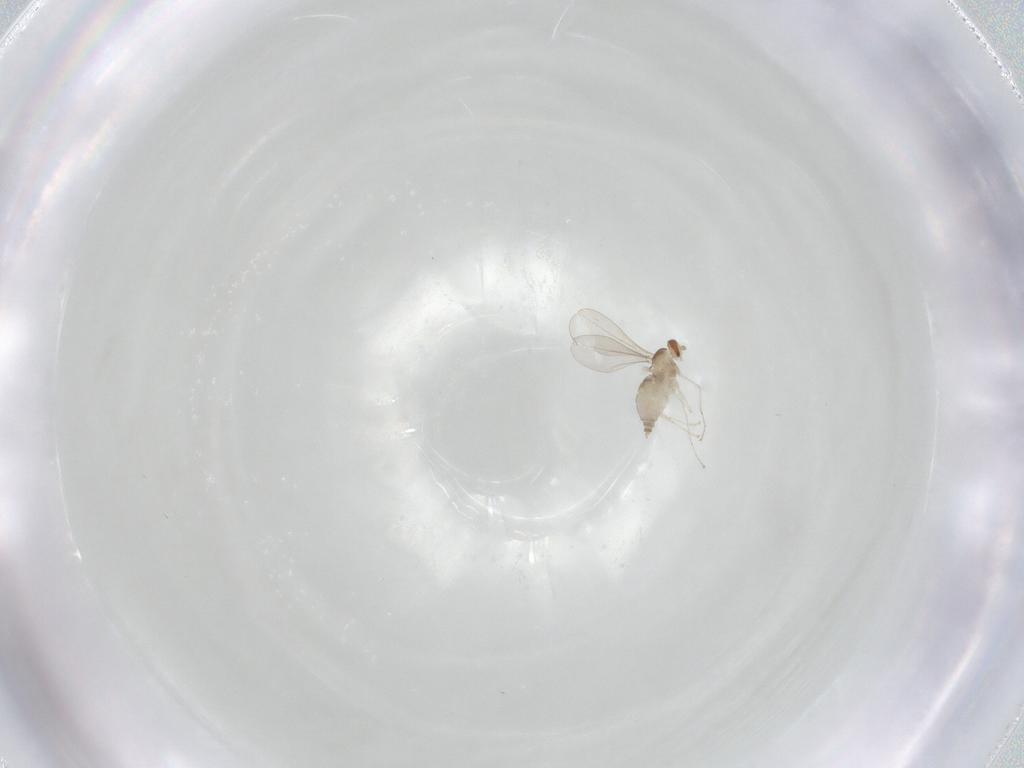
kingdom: Animalia
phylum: Arthropoda
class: Insecta
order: Diptera
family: Cecidomyiidae
